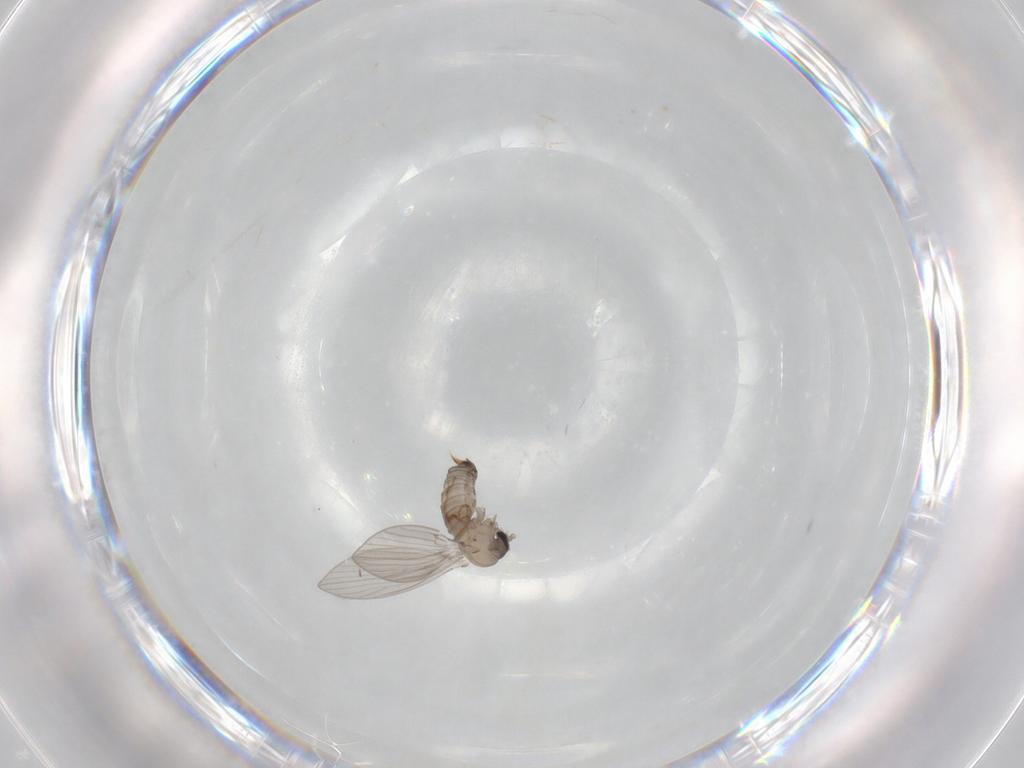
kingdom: Animalia
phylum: Arthropoda
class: Insecta
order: Diptera
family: Psychodidae
